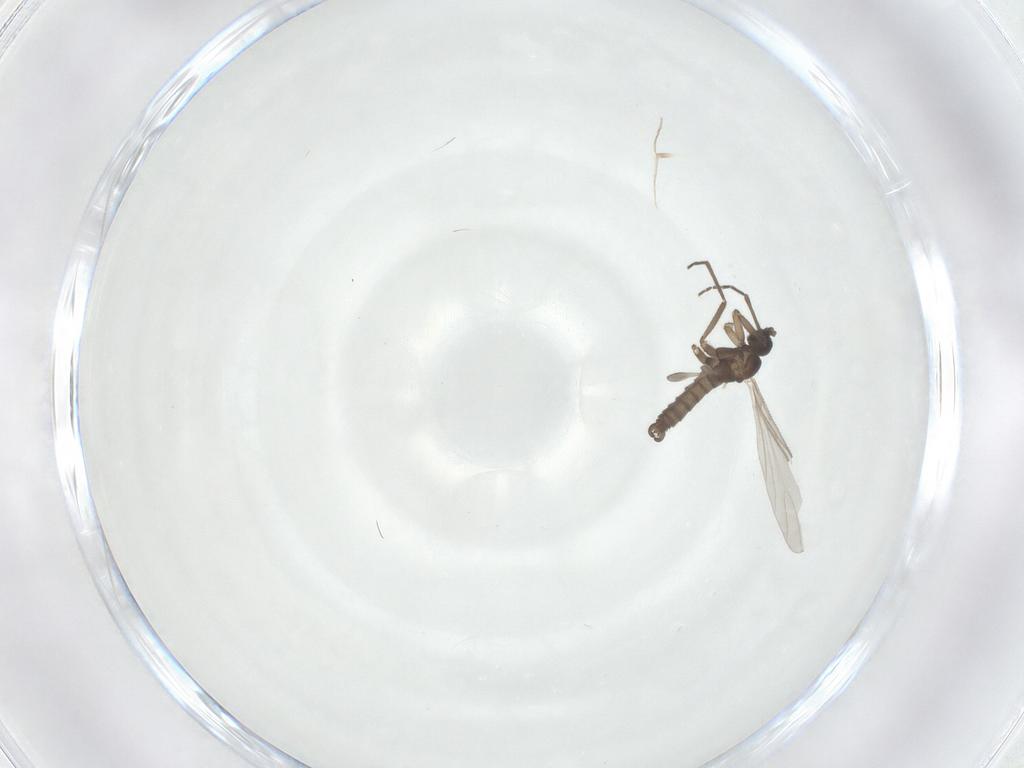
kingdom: Animalia
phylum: Arthropoda
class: Insecta
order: Diptera
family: Sciaridae
